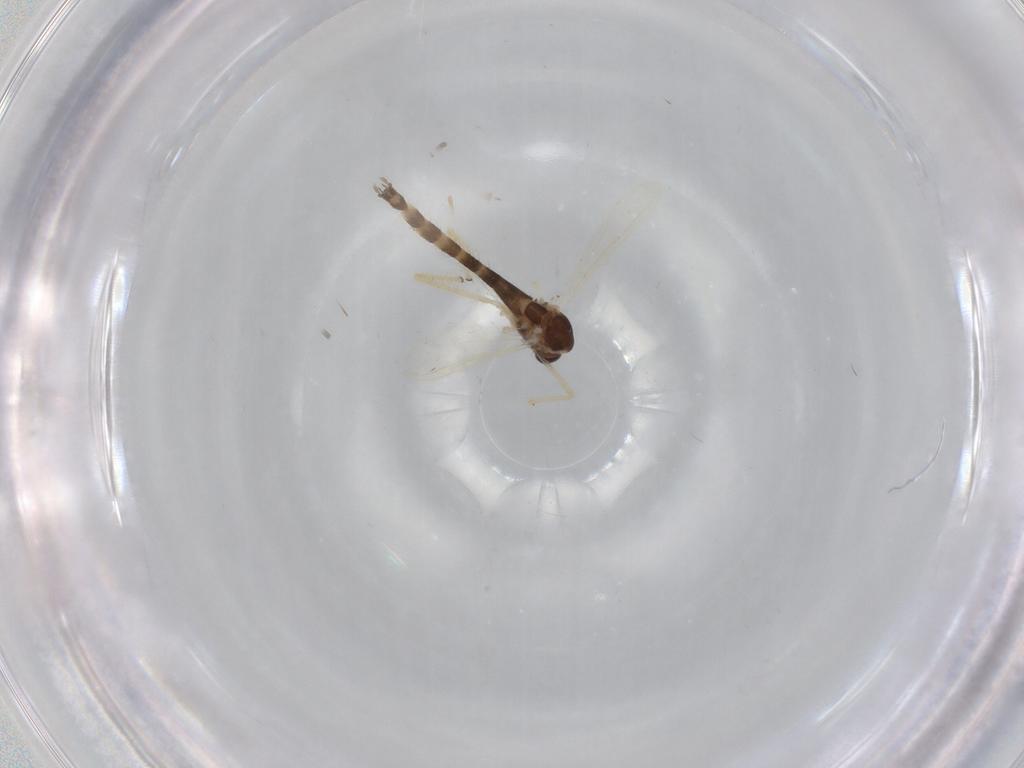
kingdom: Animalia
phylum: Arthropoda
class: Insecta
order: Diptera
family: Chironomidae
